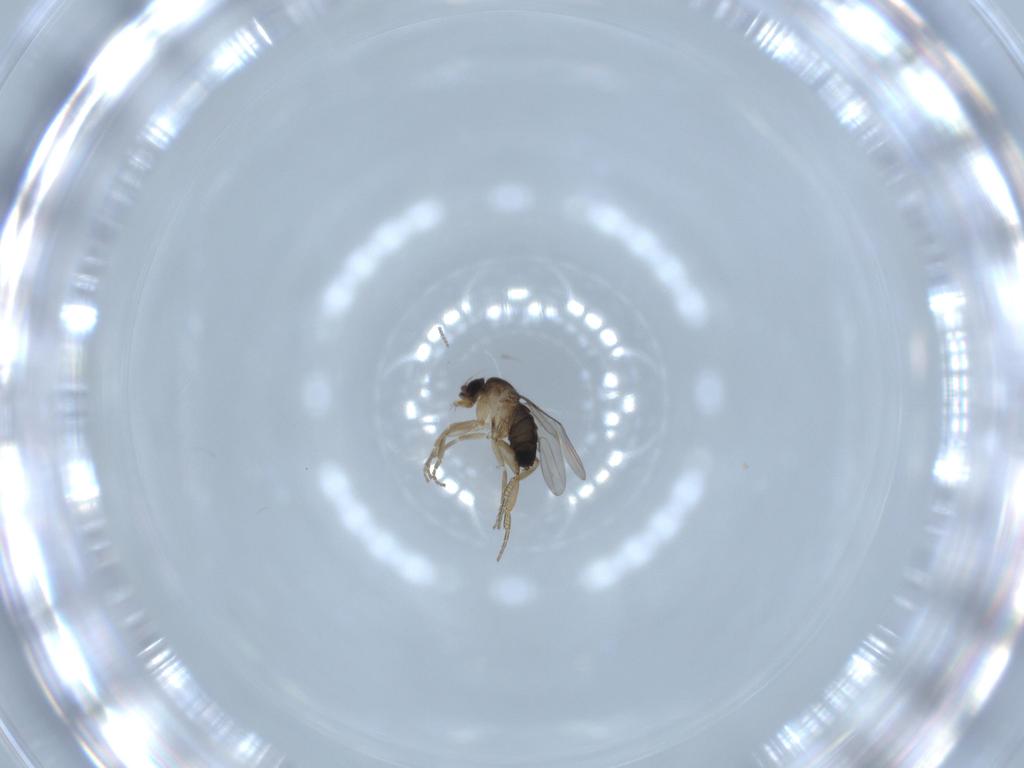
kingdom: Animalia
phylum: Arthropoda
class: Insecta
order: Diptera
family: Phoridae
